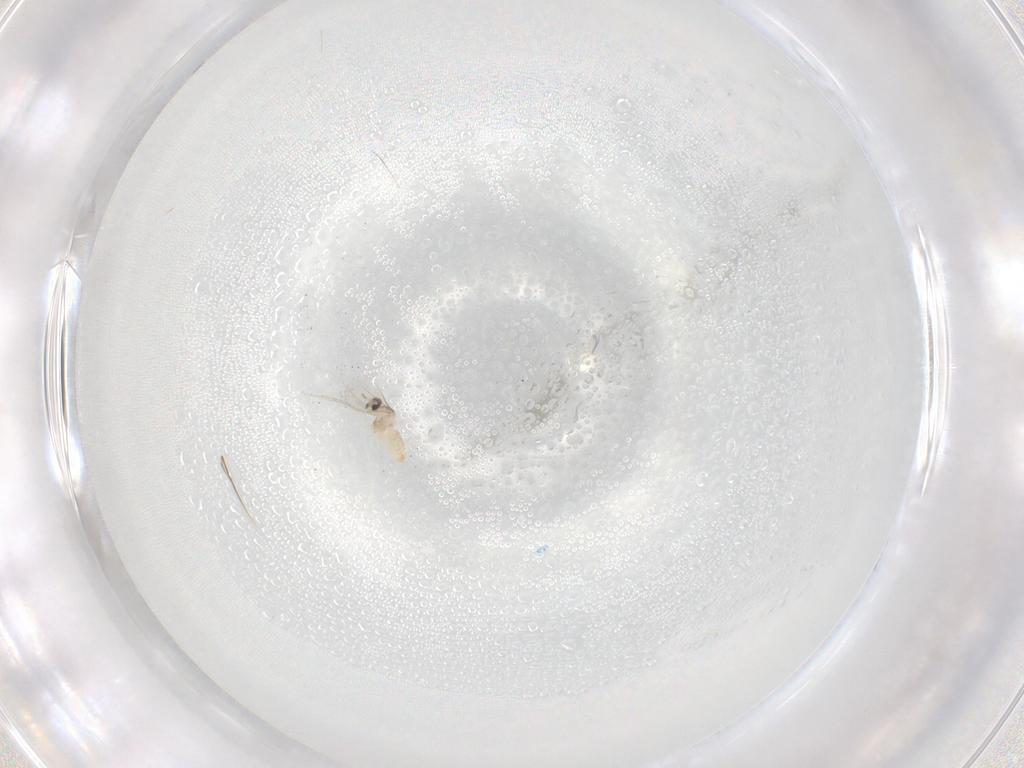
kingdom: Animalia
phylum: Arthropoda
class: Insecta
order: Diptera
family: Cecidomyiidae
